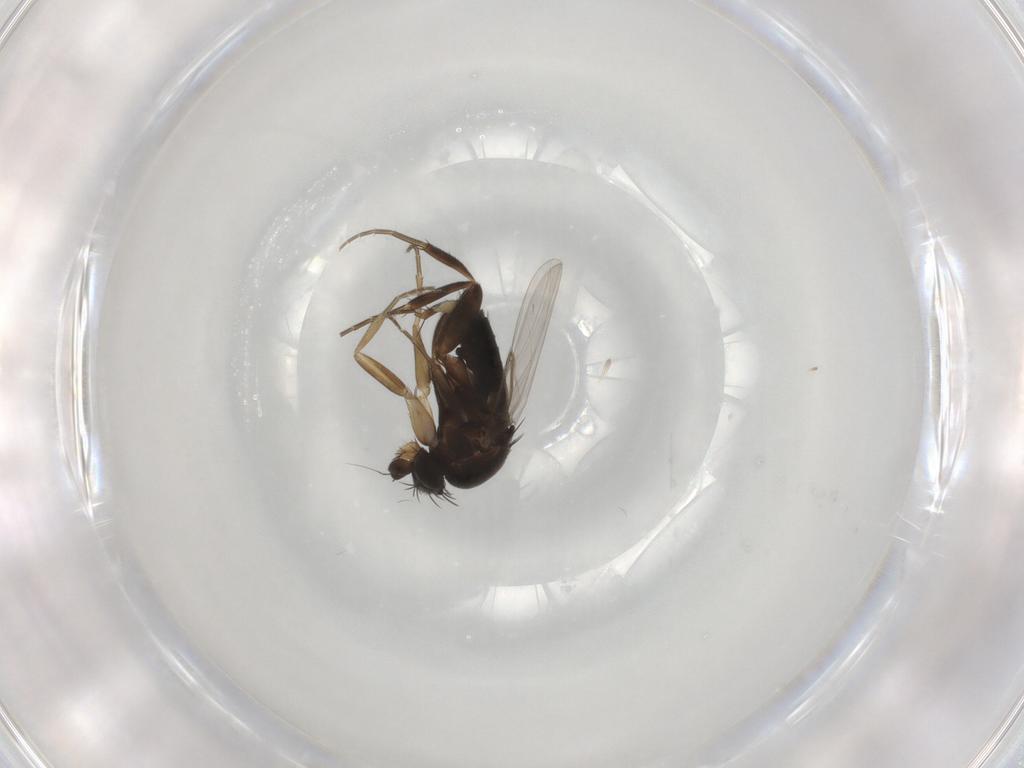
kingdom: Animalia
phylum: Arthropoda
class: Insecta
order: Diptera
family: Phoridae
